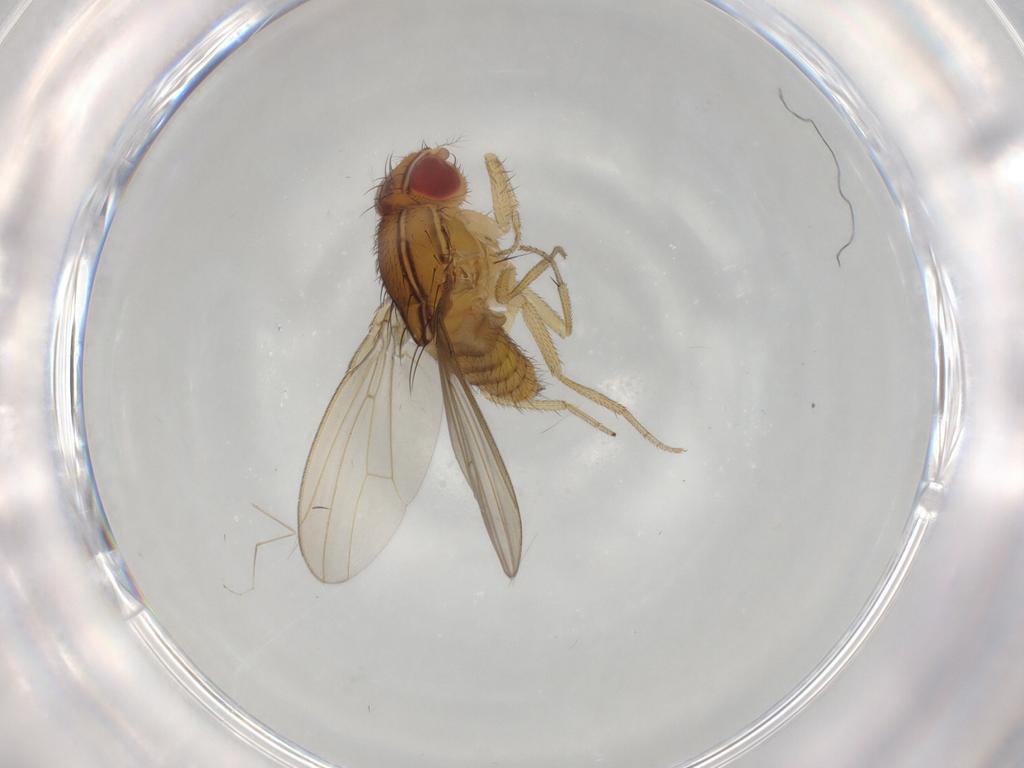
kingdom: Animalia
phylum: Arthropoda
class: Insecta
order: Diptera
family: Drosophilidae
